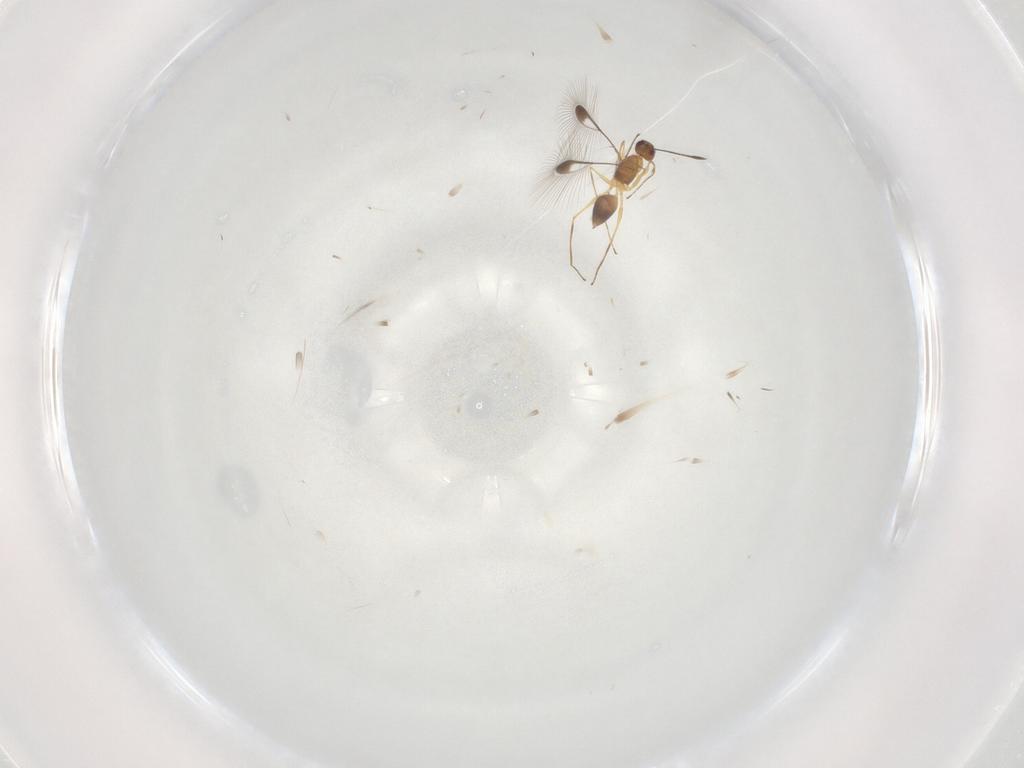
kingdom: Animalia
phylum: Arthropoda
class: Insecta
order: Hymenoptera
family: Mymaridae
